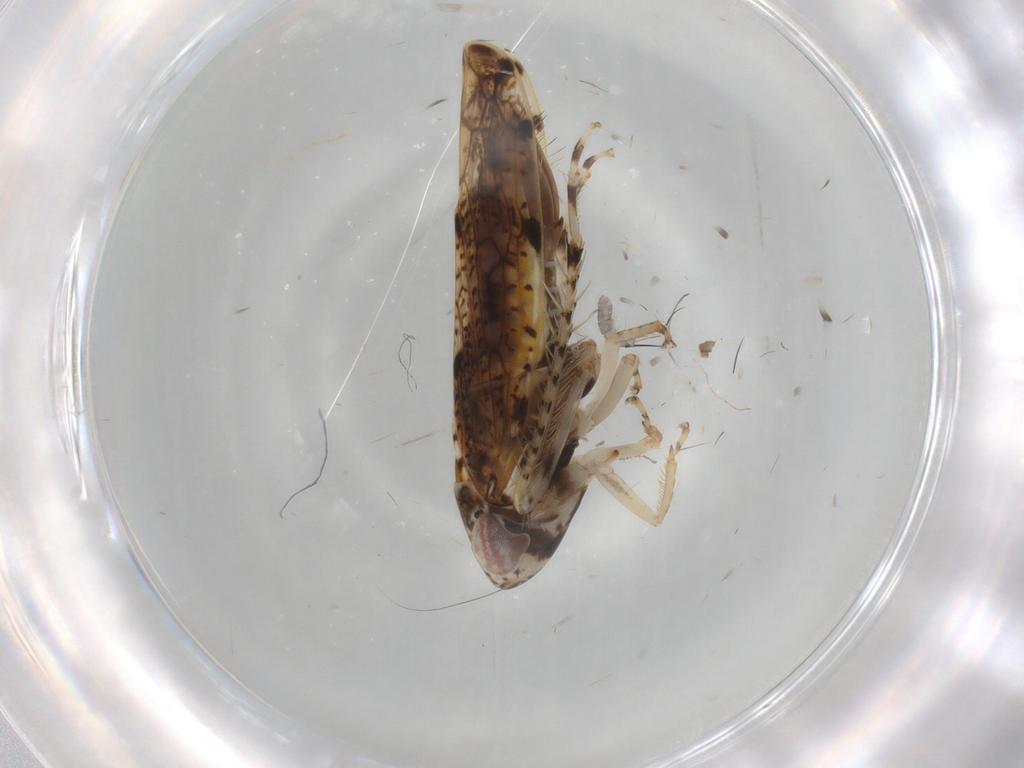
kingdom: Animalia
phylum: Arthropoda
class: Insecta
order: Hemiptera
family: Cicadellidae
